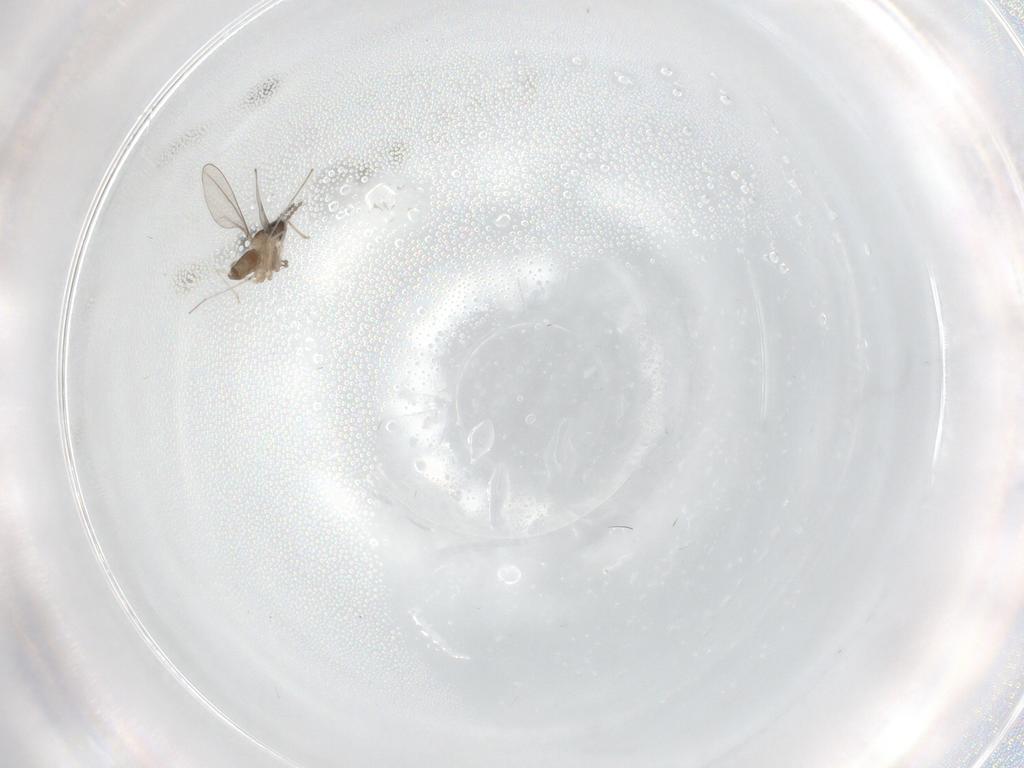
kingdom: Animalia
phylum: Arthropoda
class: Insecta
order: Diptera
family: Cecidomyiidae
